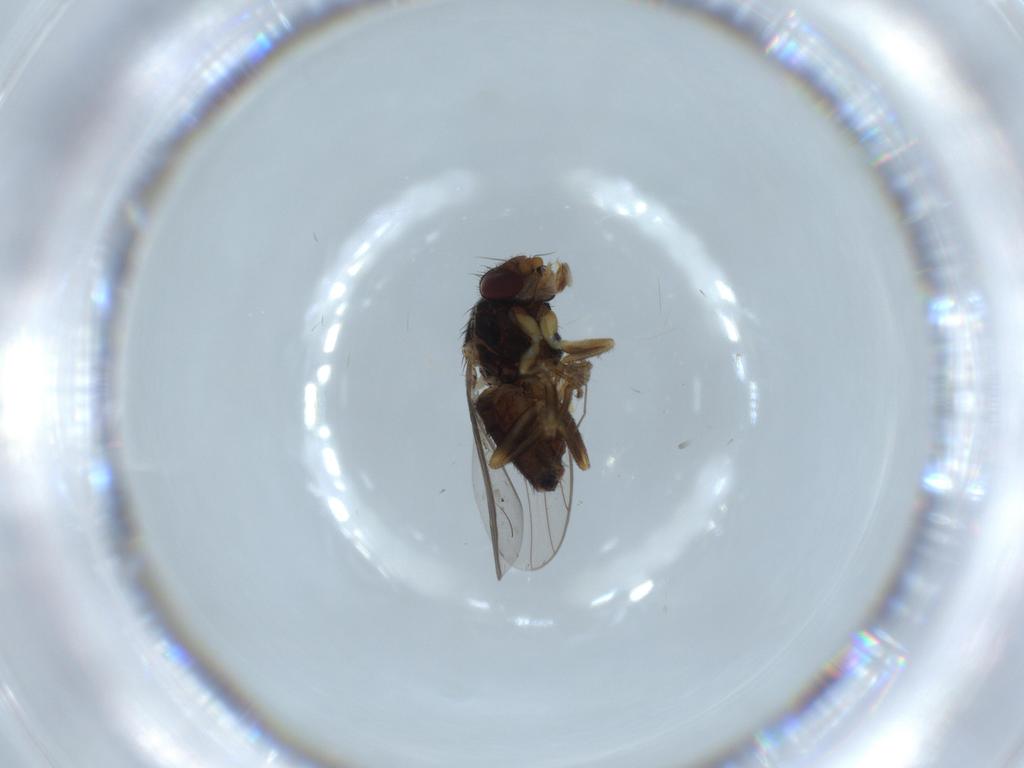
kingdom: Animalia
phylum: Arthropoda
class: Insecta
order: Diptera
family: Chloropidae
